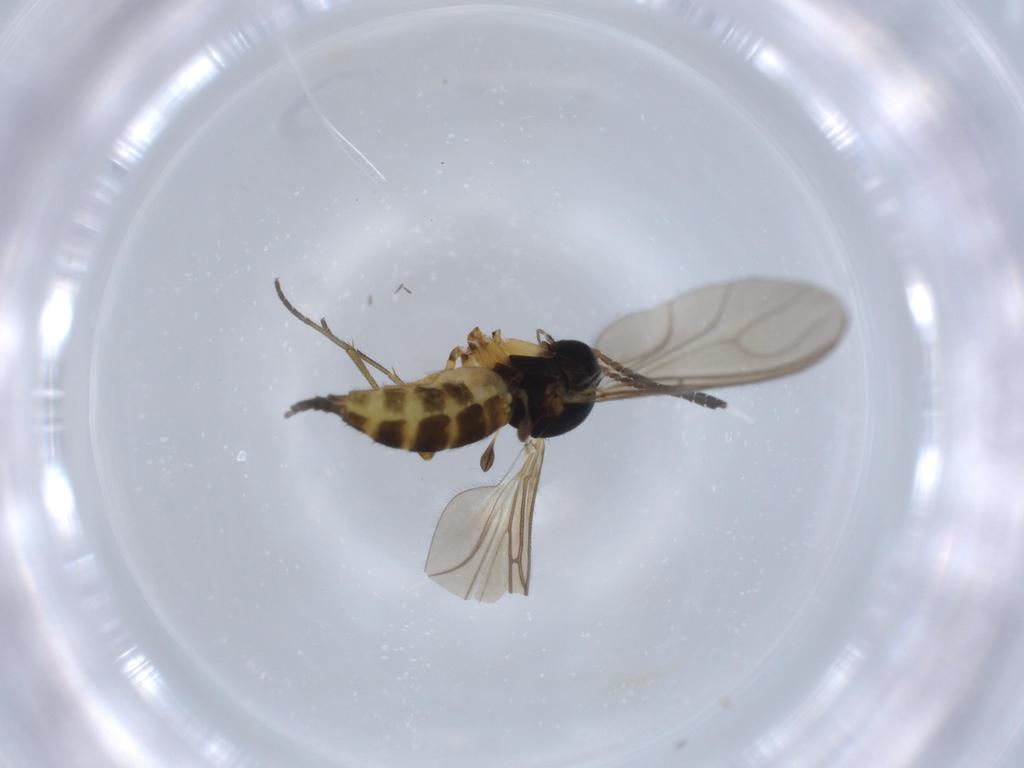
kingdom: Animalia
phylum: Arthropoda
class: Insecta
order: Diptera
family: Sciaridae
